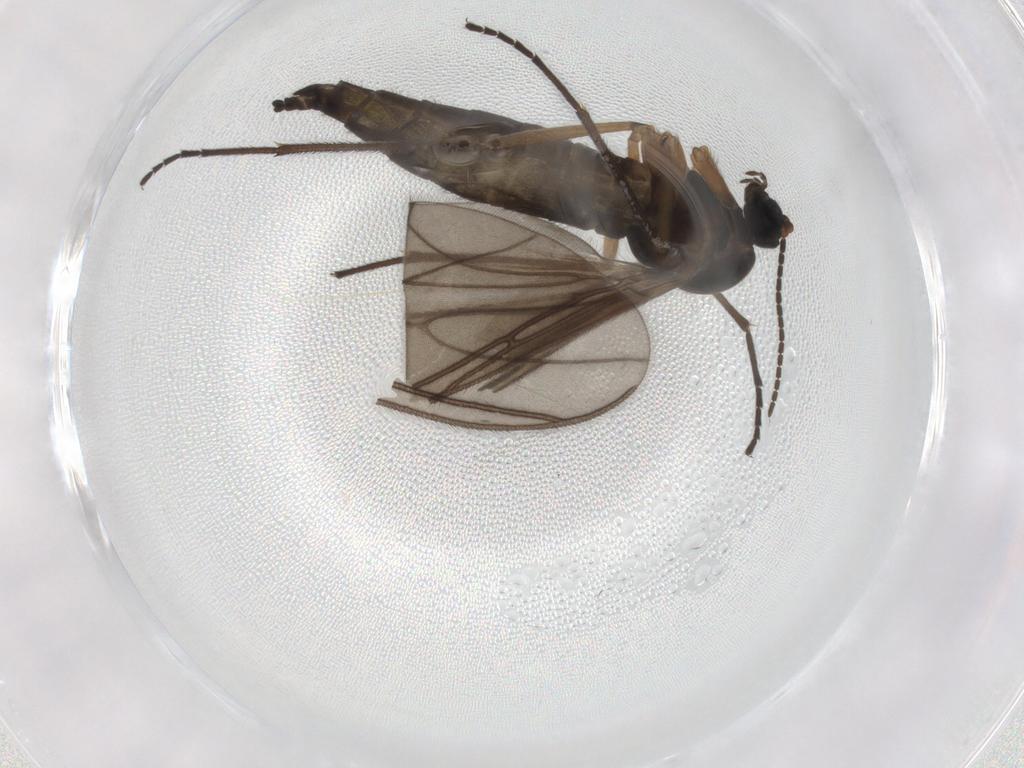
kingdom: Animalia
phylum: Arthropoda
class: Insecta
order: Diptera
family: Sciaridae
